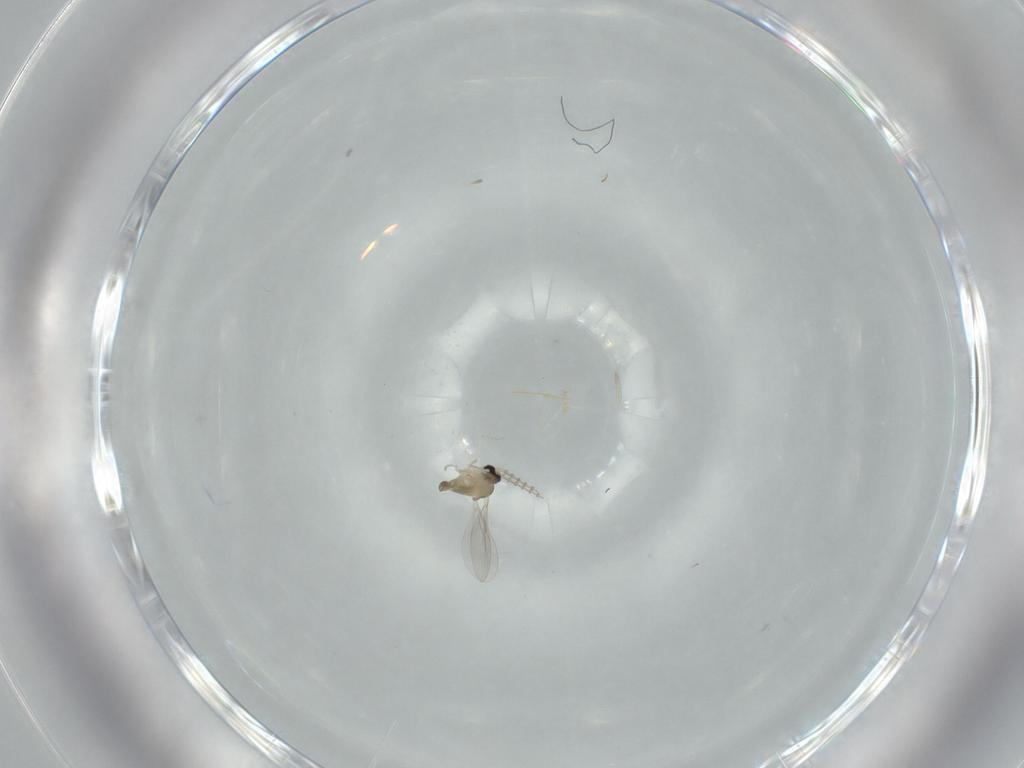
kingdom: Animalia
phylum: Arthropoda
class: Insecta
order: Diptera
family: Cecidomyiidae
